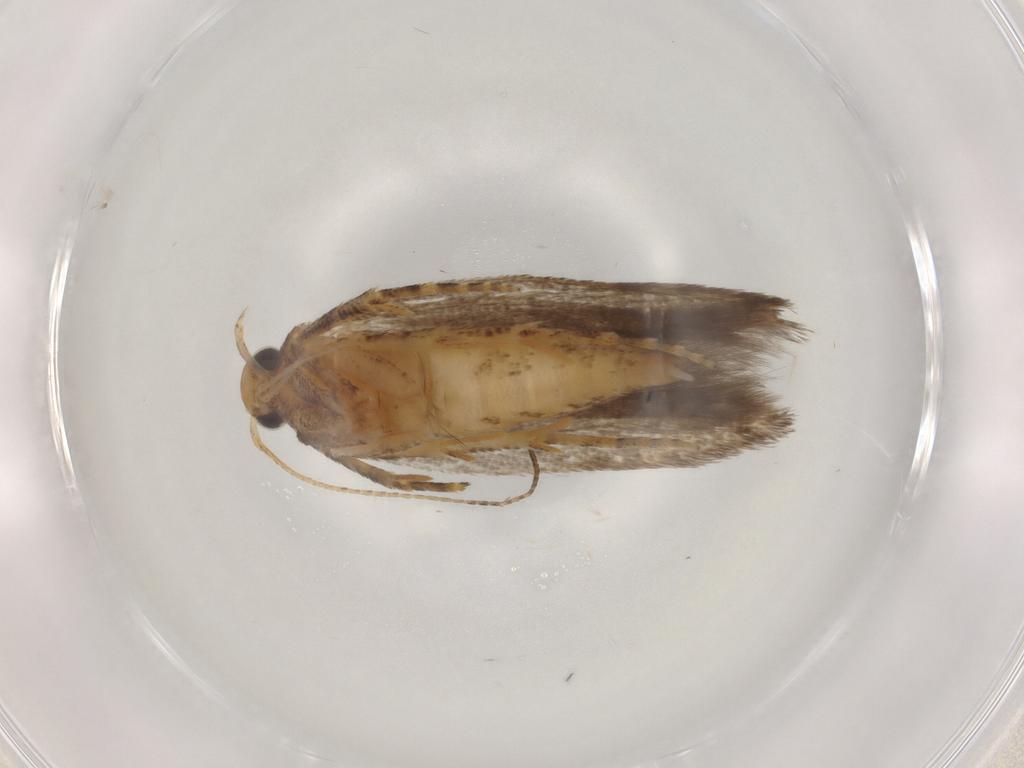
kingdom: Animalia
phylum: Arthropoda
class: Insecta
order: Lepidoptera
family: Gelechiidae
